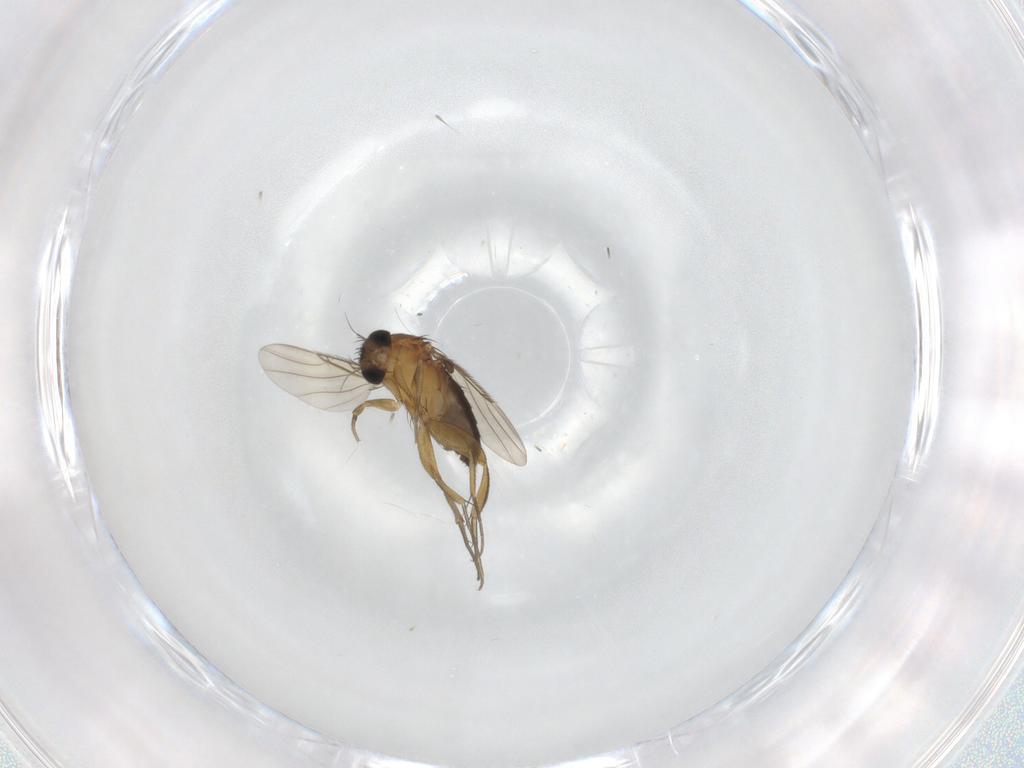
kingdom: Animalia
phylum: Arthropoda
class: Insecta
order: Diptera
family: Phoridae
